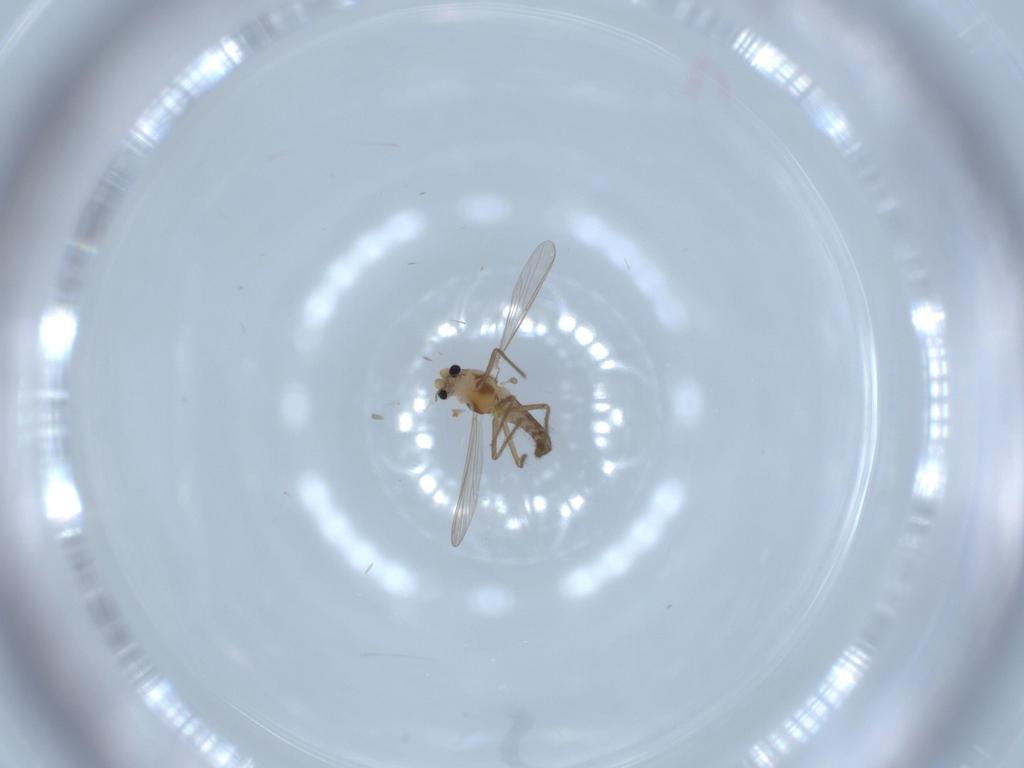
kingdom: Animalia
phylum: Arthropoda
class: Insecta
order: Diptera
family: Chironomidae
